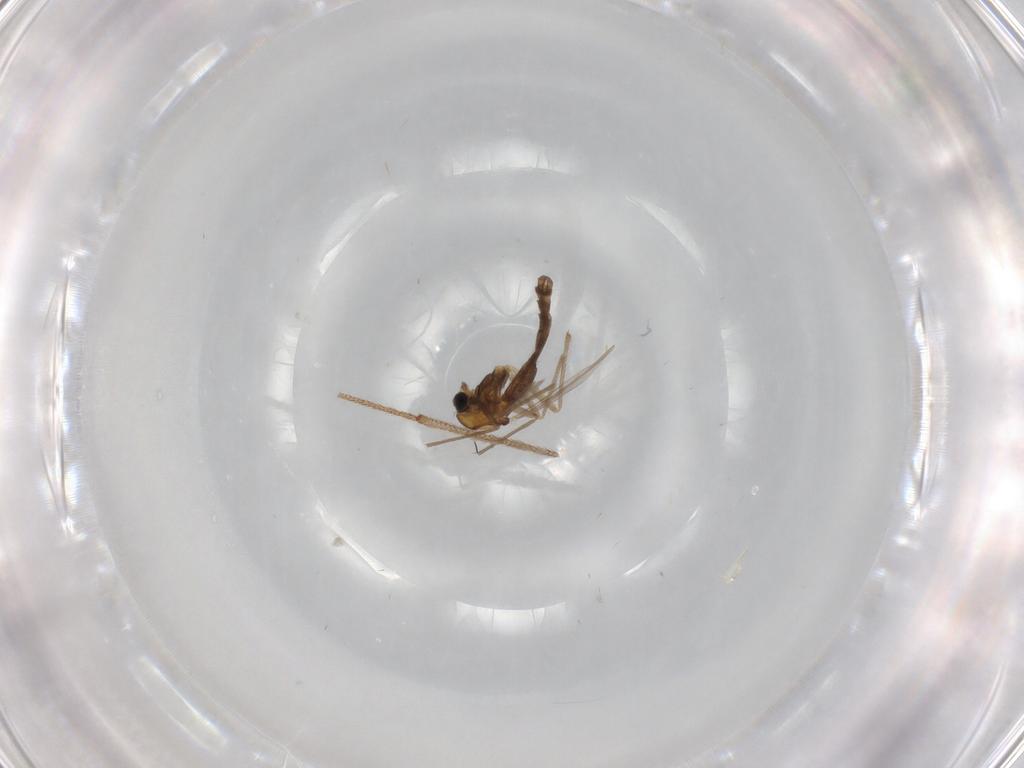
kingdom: Animalia
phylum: Arthropoda
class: Insecta
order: Diptera
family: Chironomidae
